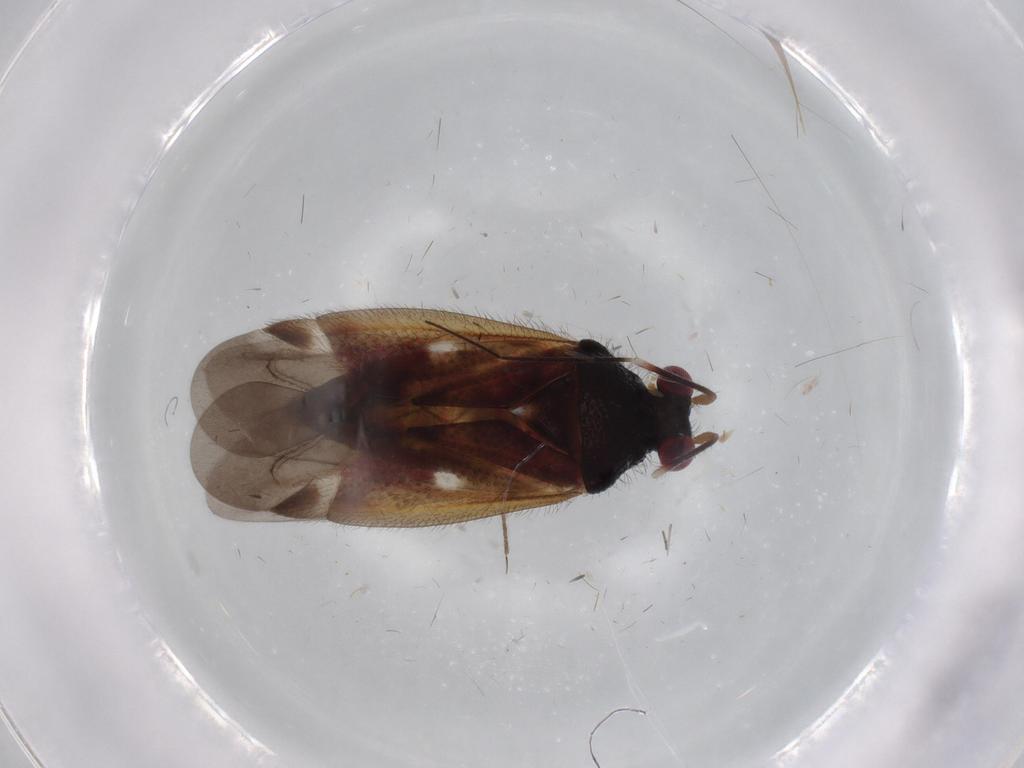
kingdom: Animalia
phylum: Arthropoda
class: Insecta
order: Hemiptera
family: Miridae
